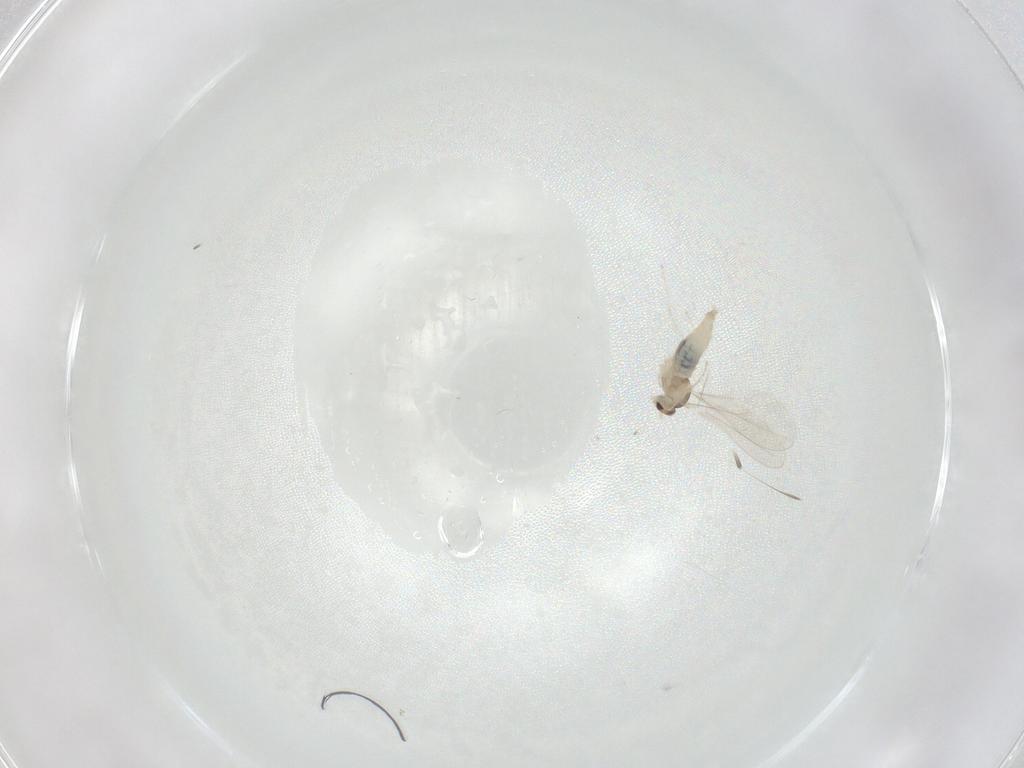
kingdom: Animalia
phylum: Arthropoda
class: Insecta
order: Diptera
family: Cecidomyiidae
